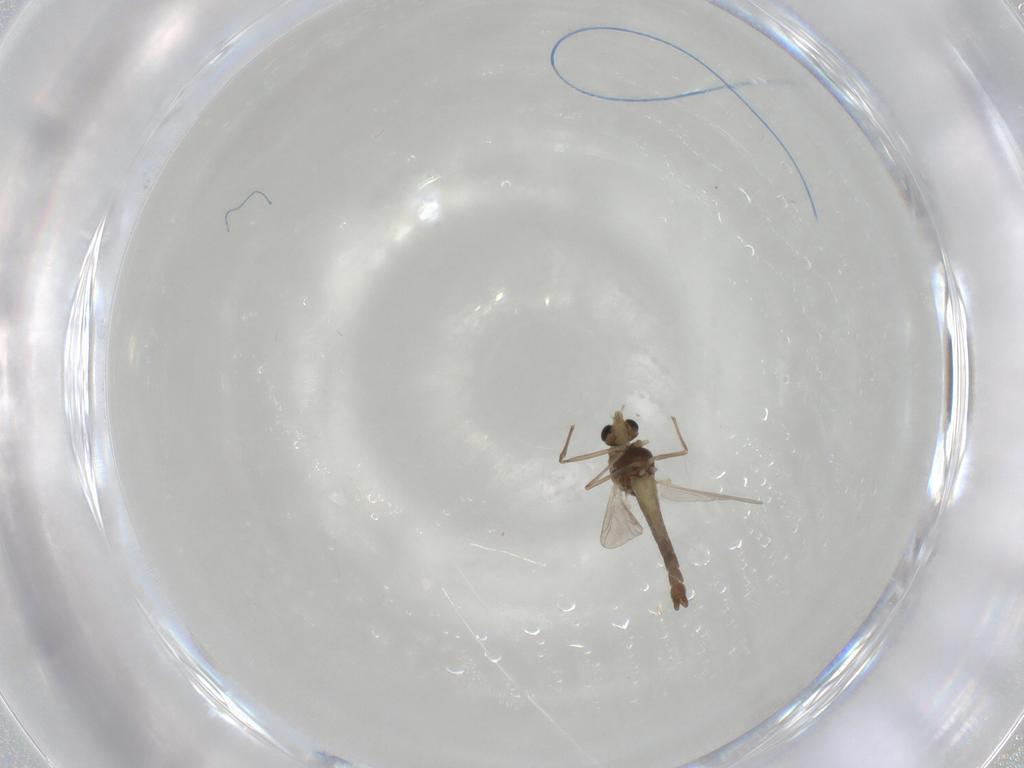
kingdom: Animalia
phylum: Arthropoda
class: Insecta
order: Diptera
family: Chironomidae
